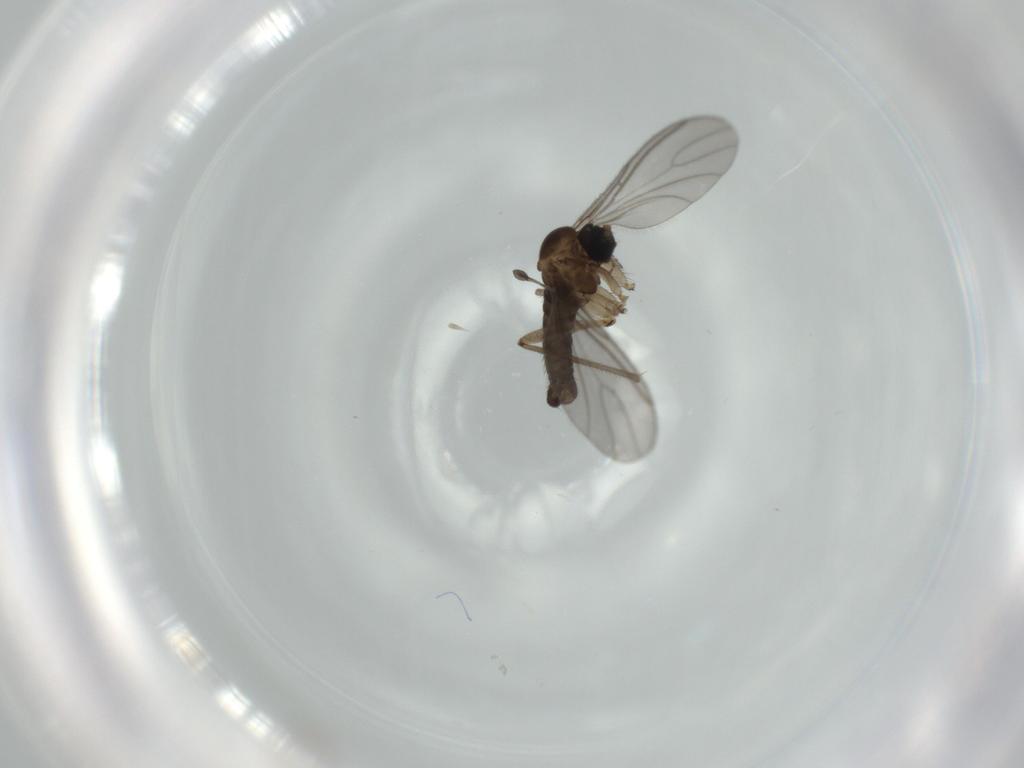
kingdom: Animalia
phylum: Arthropoda
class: Insecta
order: Diptera
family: Sciaridae
